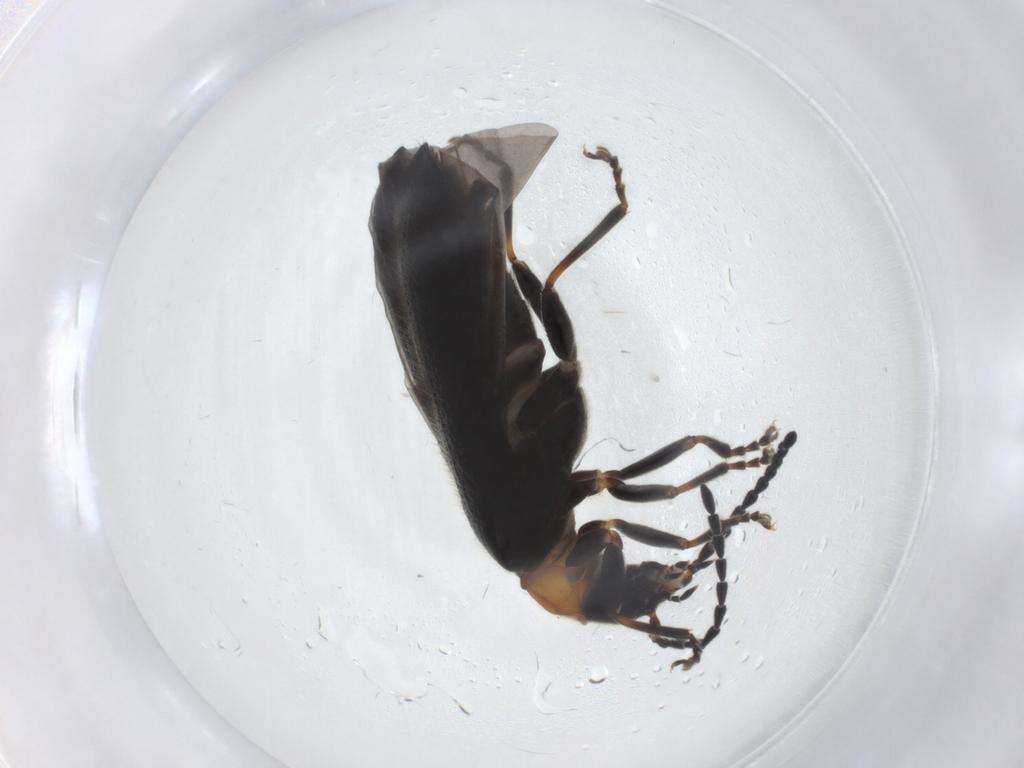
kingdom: Animalia
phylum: Arthropoda
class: Insecta
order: Coleoptera
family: Cantharidae
